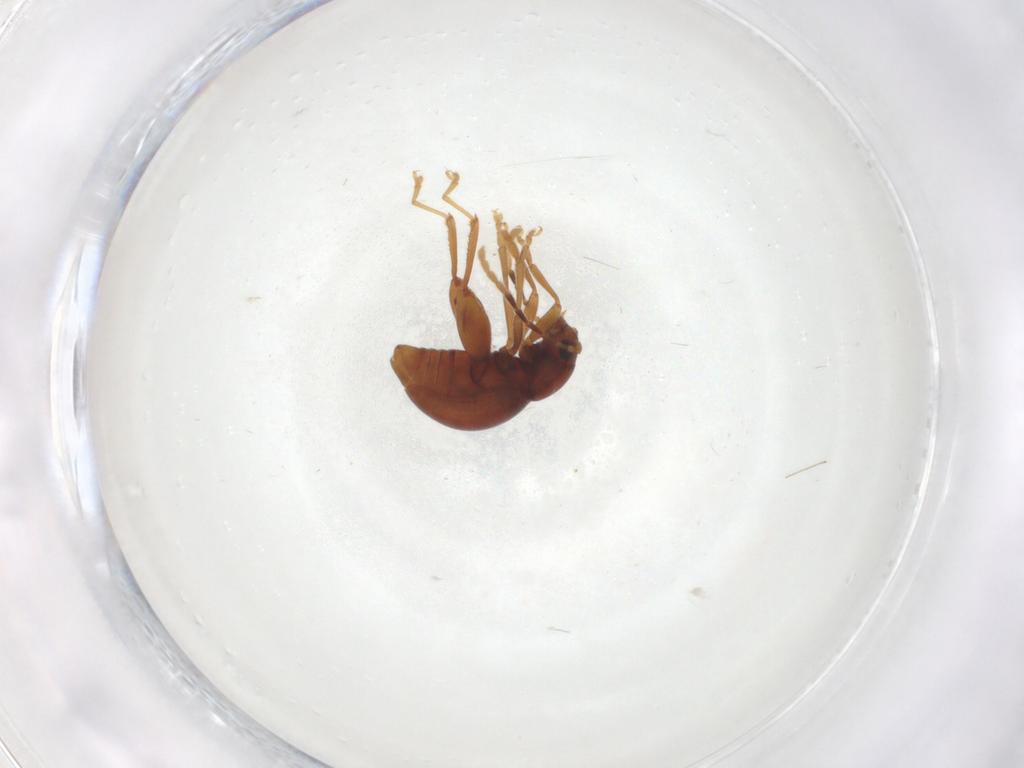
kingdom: Animalia
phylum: Arthropoda
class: Insecta
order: Coleoptera
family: Chrysomelidae
